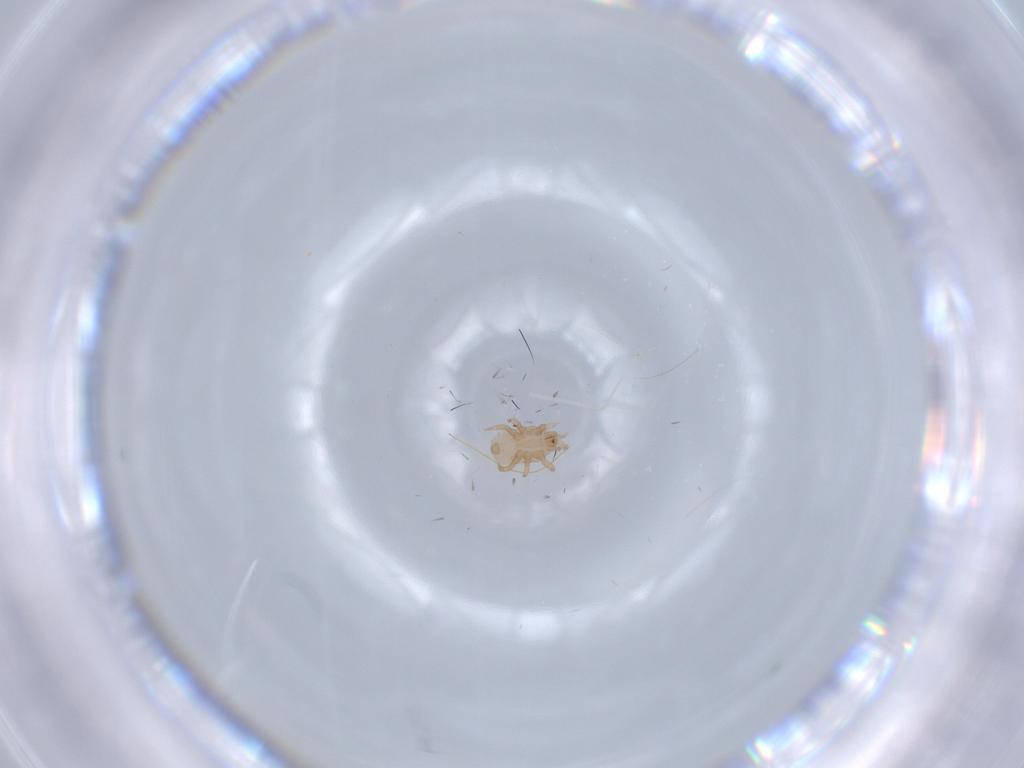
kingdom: Animalia
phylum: Arthropoda
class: Arachnida
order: Mesostigmata
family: Halolaelapidae
